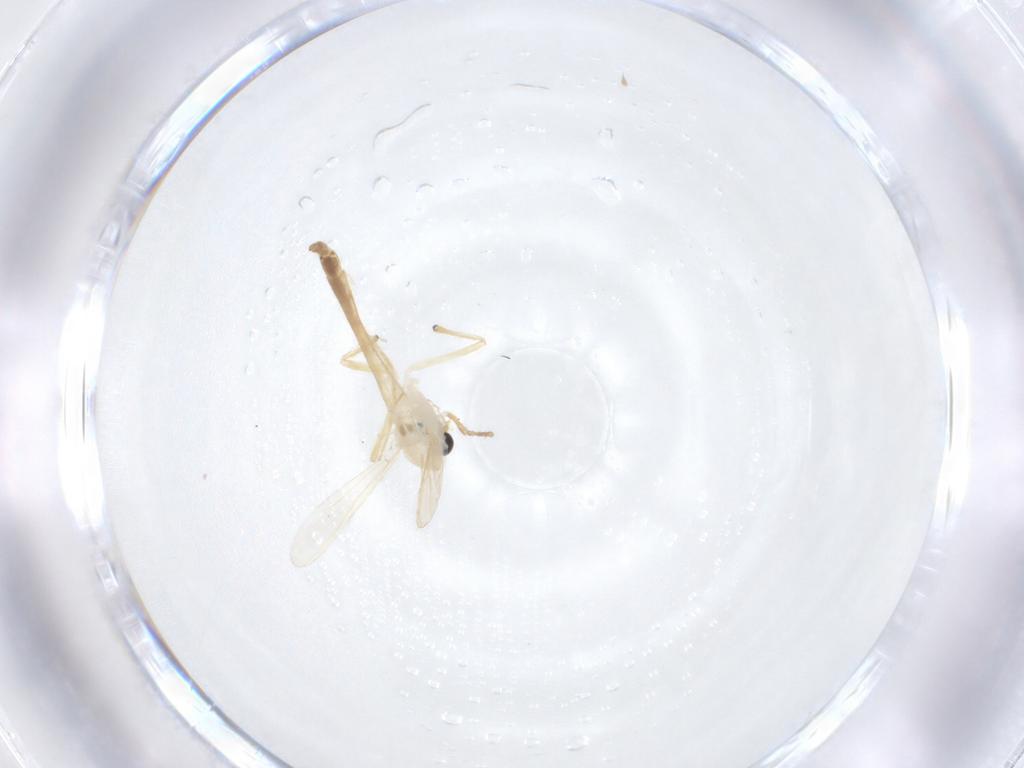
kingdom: Animalia
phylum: Arthropoda
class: Insecta
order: Diptera
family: Chironomidae
